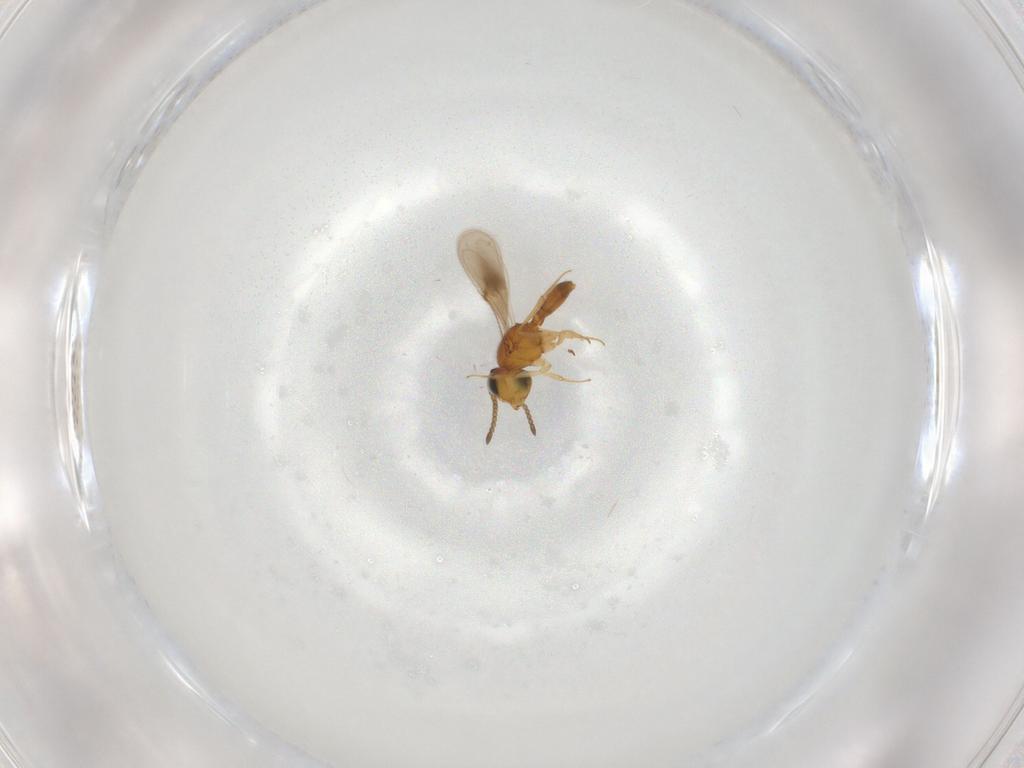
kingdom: Animalia
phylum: Arthropoda
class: Insecta
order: Hymenoptera
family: Scelionidae
